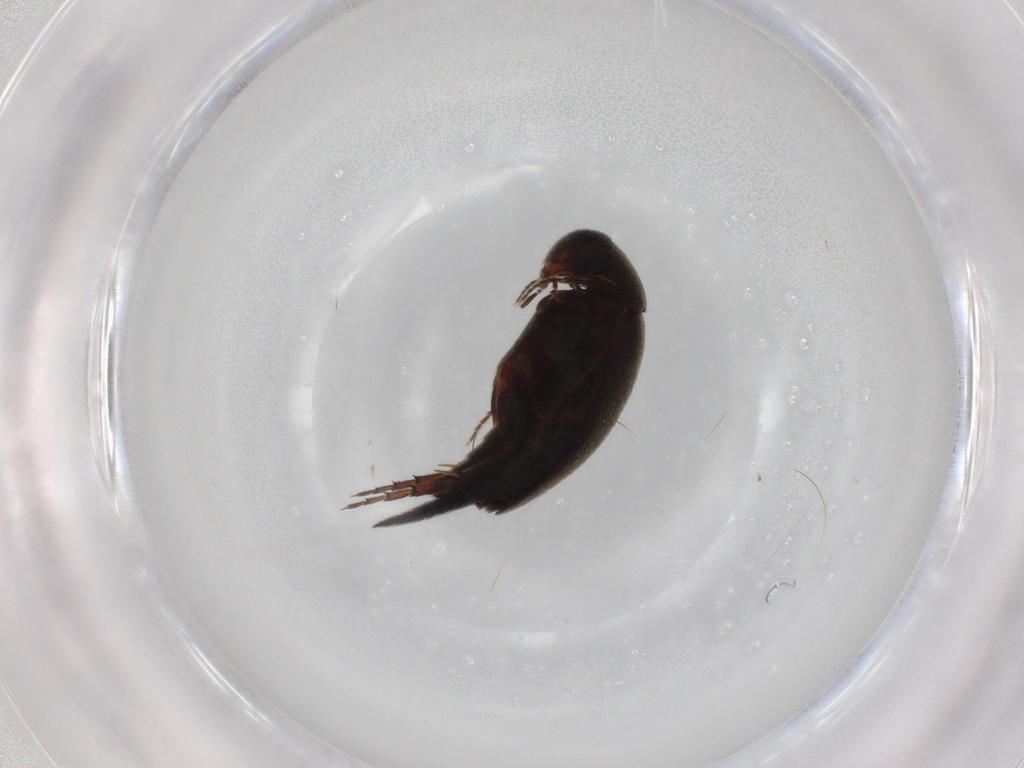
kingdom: Animalia
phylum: Arthropoda
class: Insecta
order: Coleoptera
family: Mordellidae
